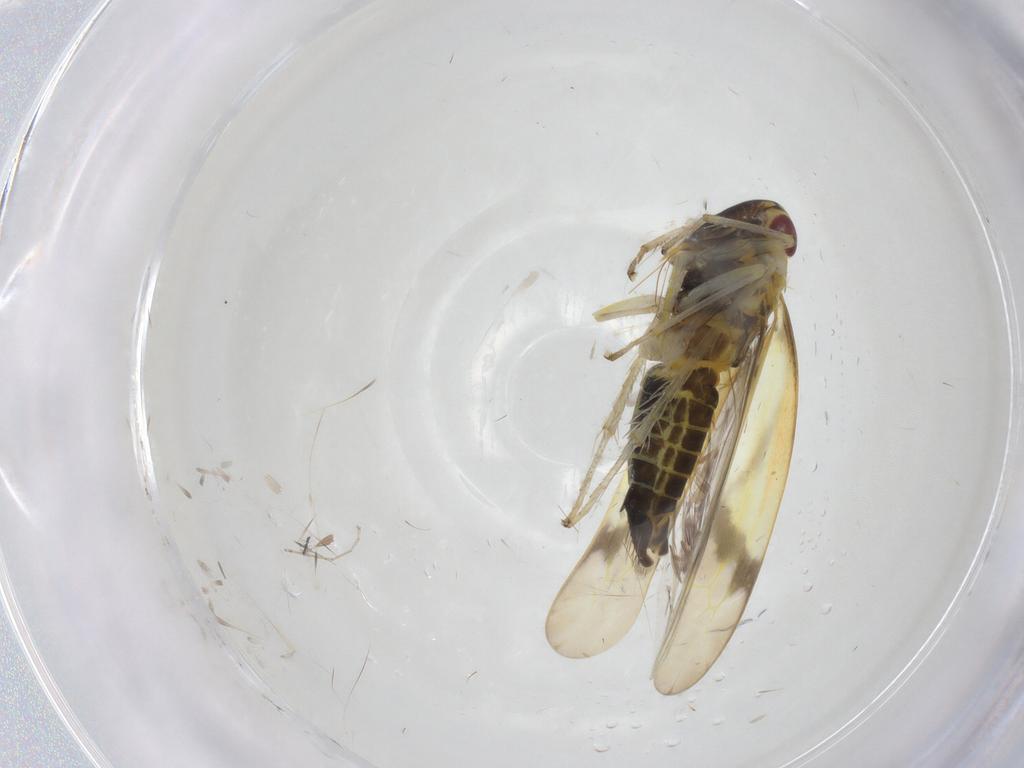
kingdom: Animalia
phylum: Arthropoda
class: Insecta
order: Hemiptera
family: Cicadellidae
